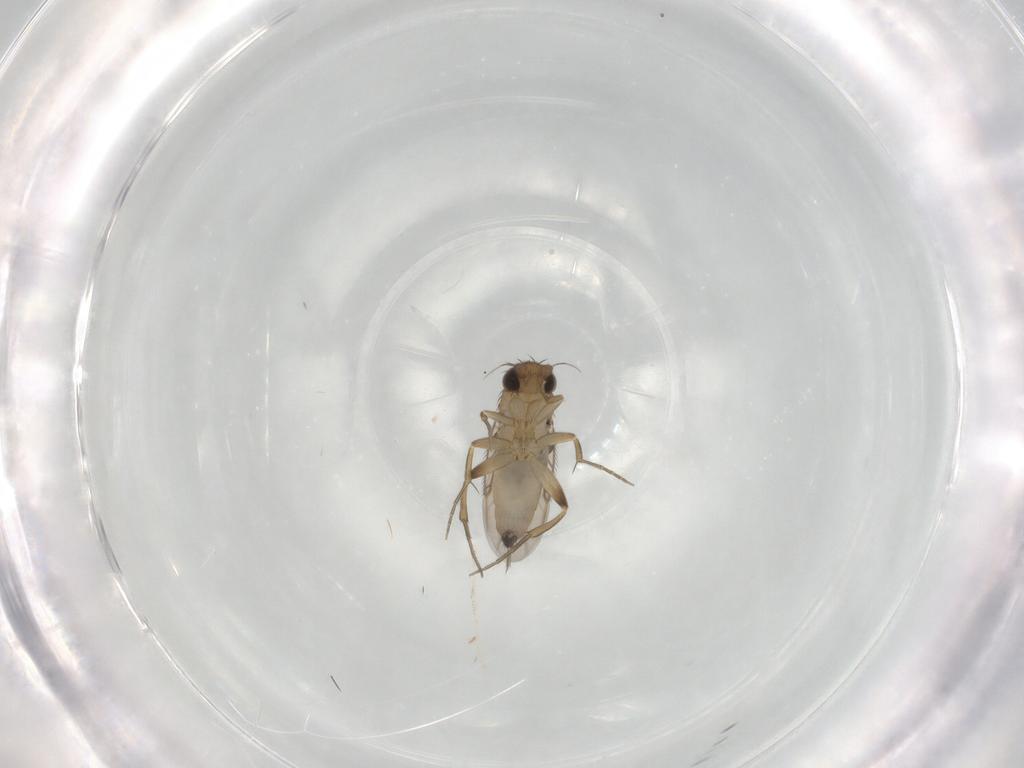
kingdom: Animalia
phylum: Arthropoda
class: Insecta
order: Diptera
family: Phoridae
